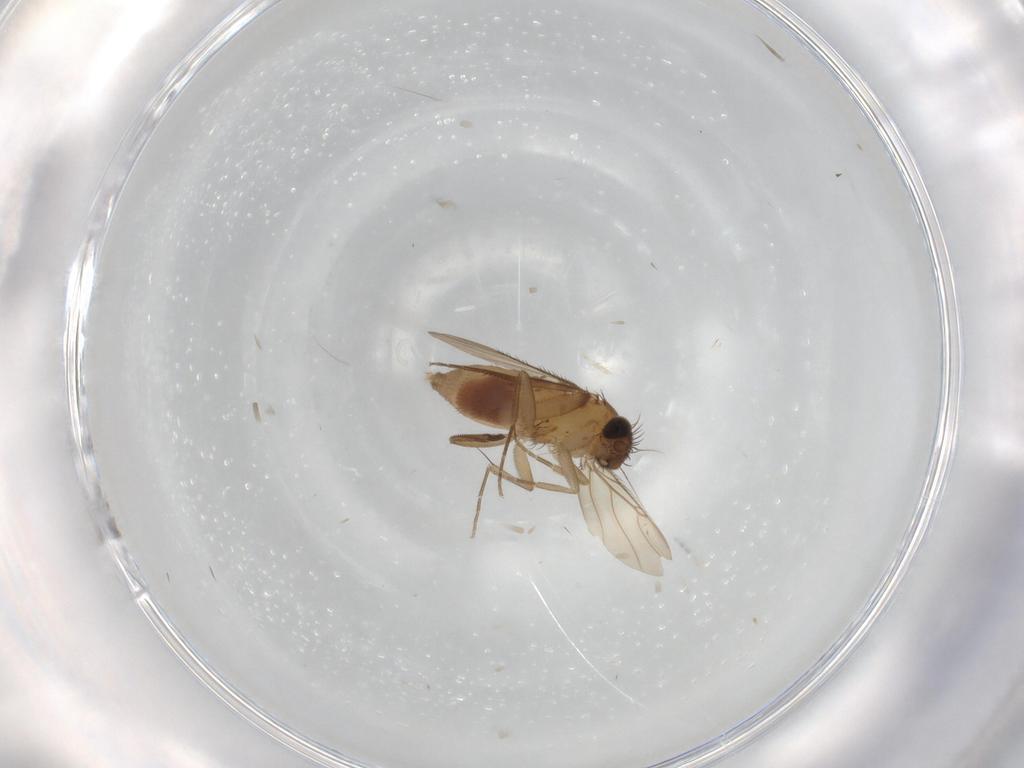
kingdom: Animalia
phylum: Arthropoda
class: Insecta
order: Diptera
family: Phoridae
